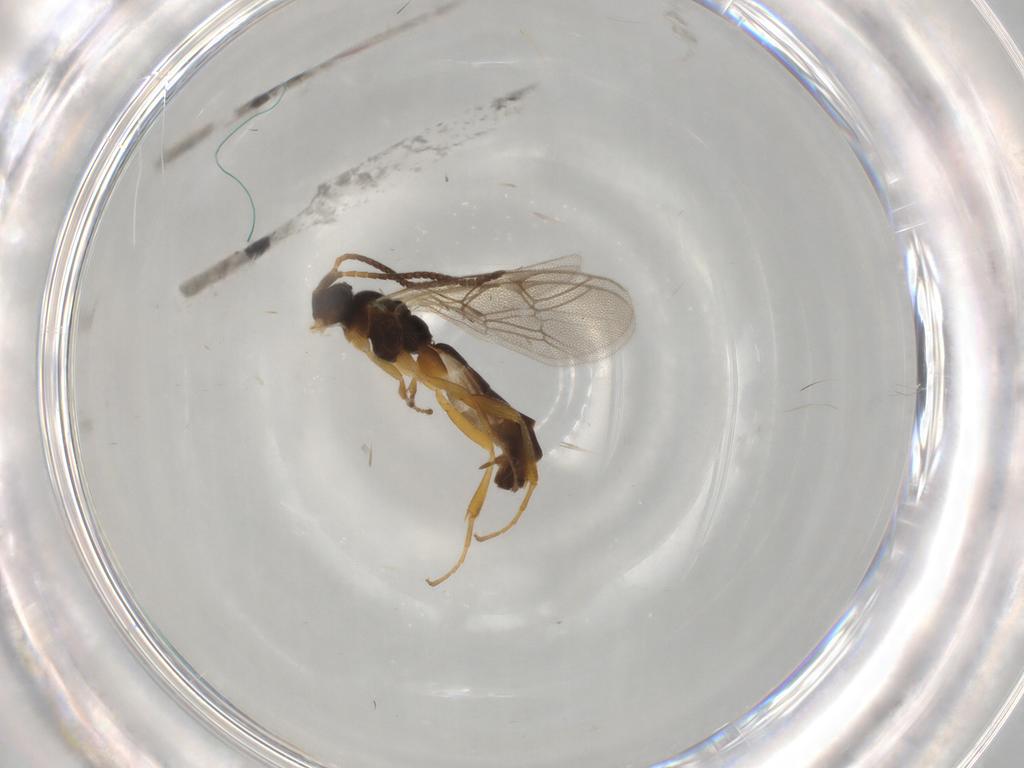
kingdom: Animalia
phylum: Arthropoda
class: Insecta
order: Hymenoptera
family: Ichneumonidae
